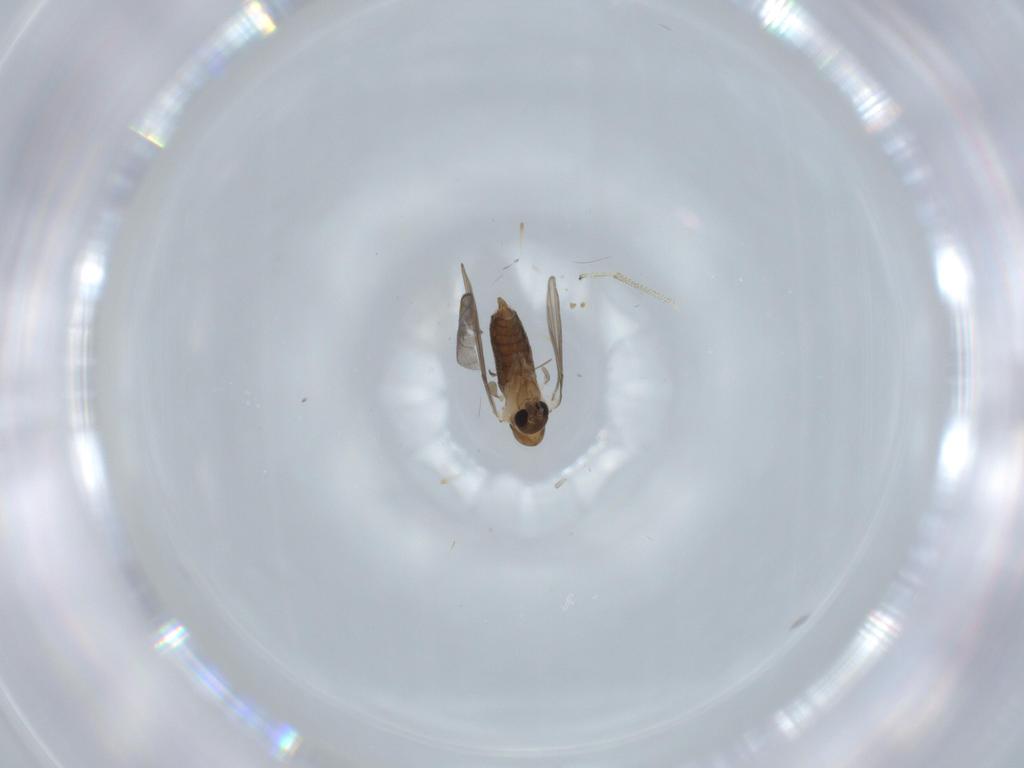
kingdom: Animalia
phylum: Arthropoda
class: Insecta
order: Diptera
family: Psychodidae
